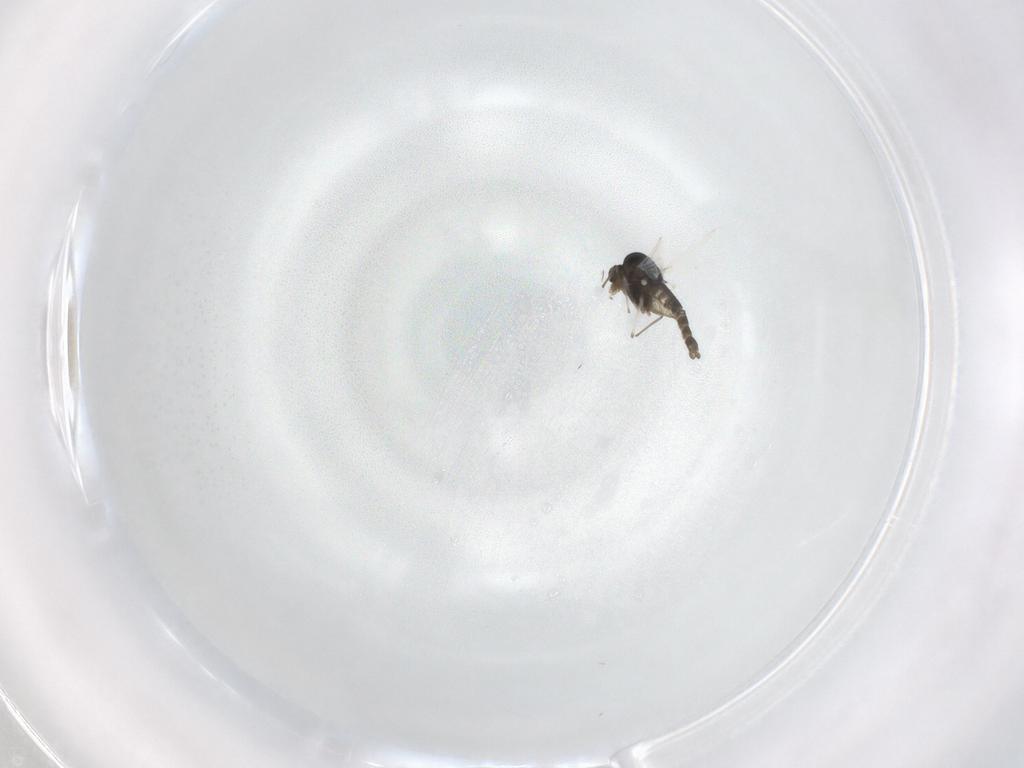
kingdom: Animalia
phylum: Arthropoda
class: Insecta
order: Diptera
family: Chironomidae
